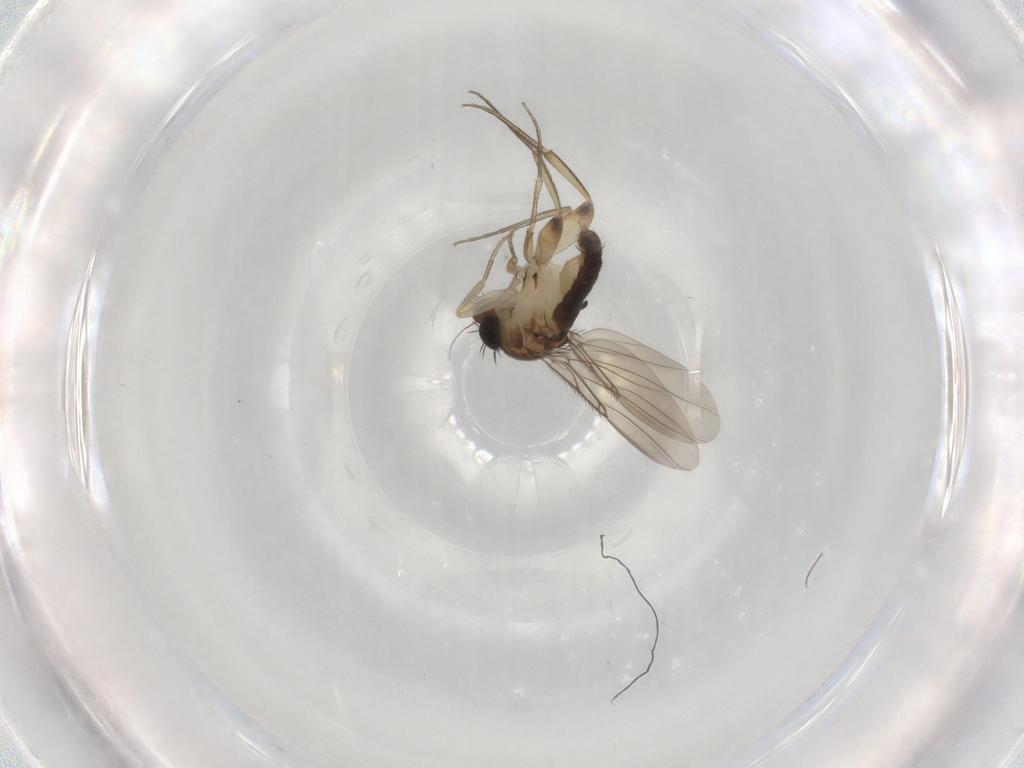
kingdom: Animalia
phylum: Arthropoda
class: Insecta
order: Diptera
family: Phoridae
